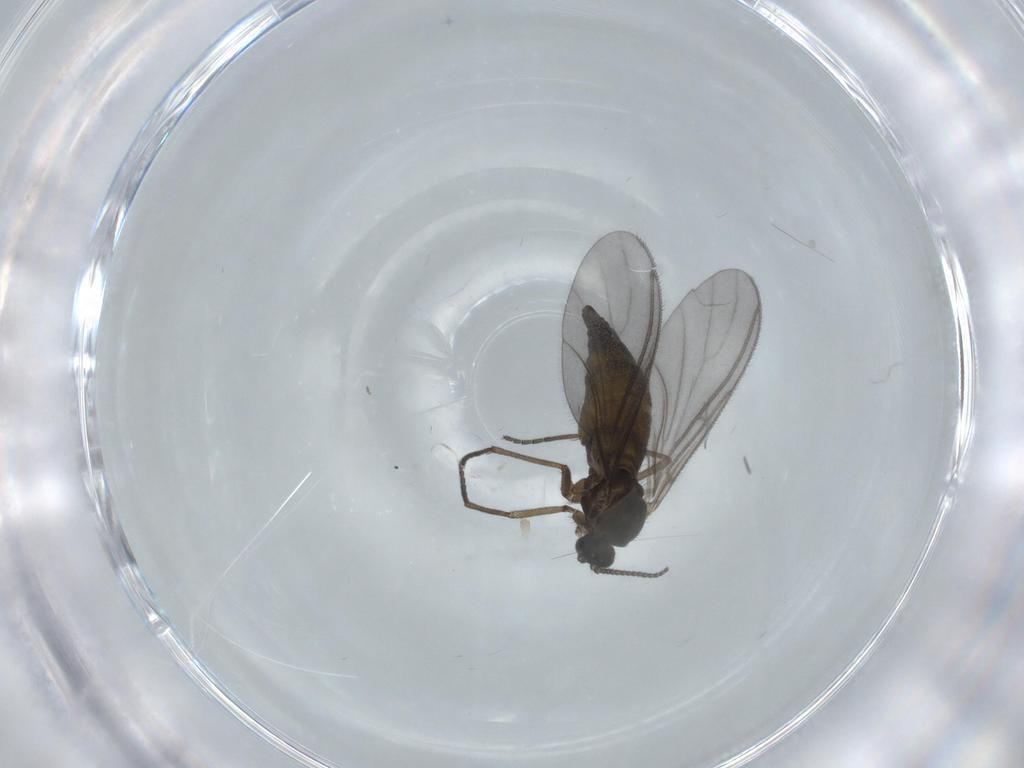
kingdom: Animalia
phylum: Arthropoda
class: Insecta
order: Diptera
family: Sciaridae
